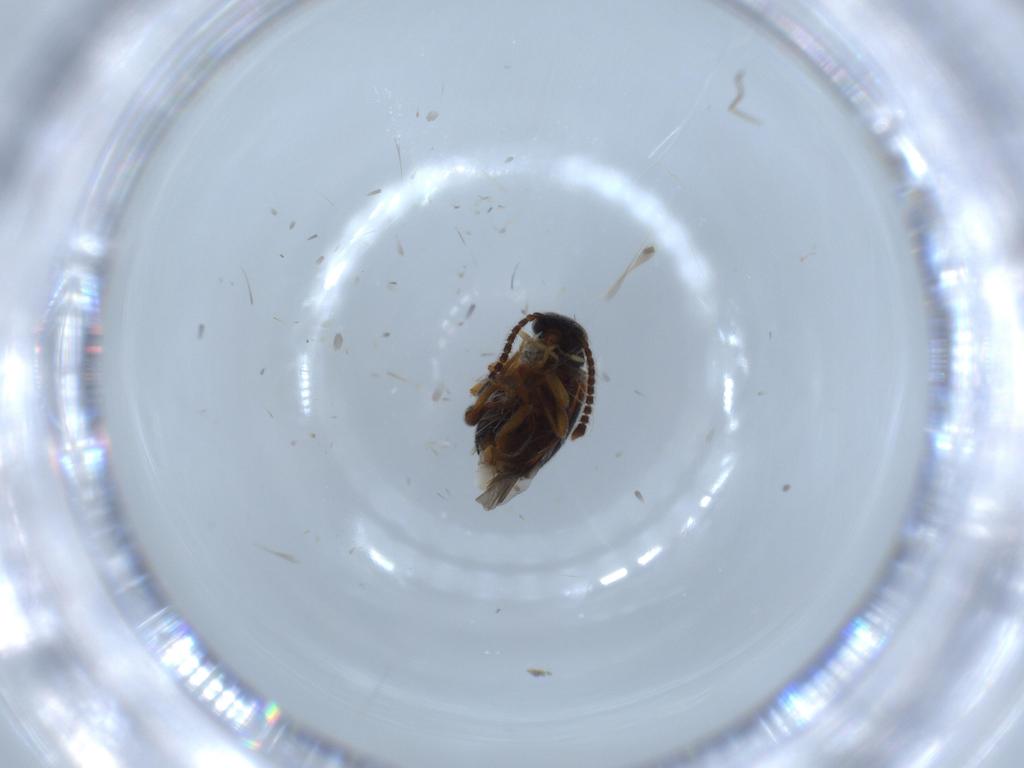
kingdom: Animalia
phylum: Arthropoda
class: Insecta
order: Coleoptera
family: Aderidae
